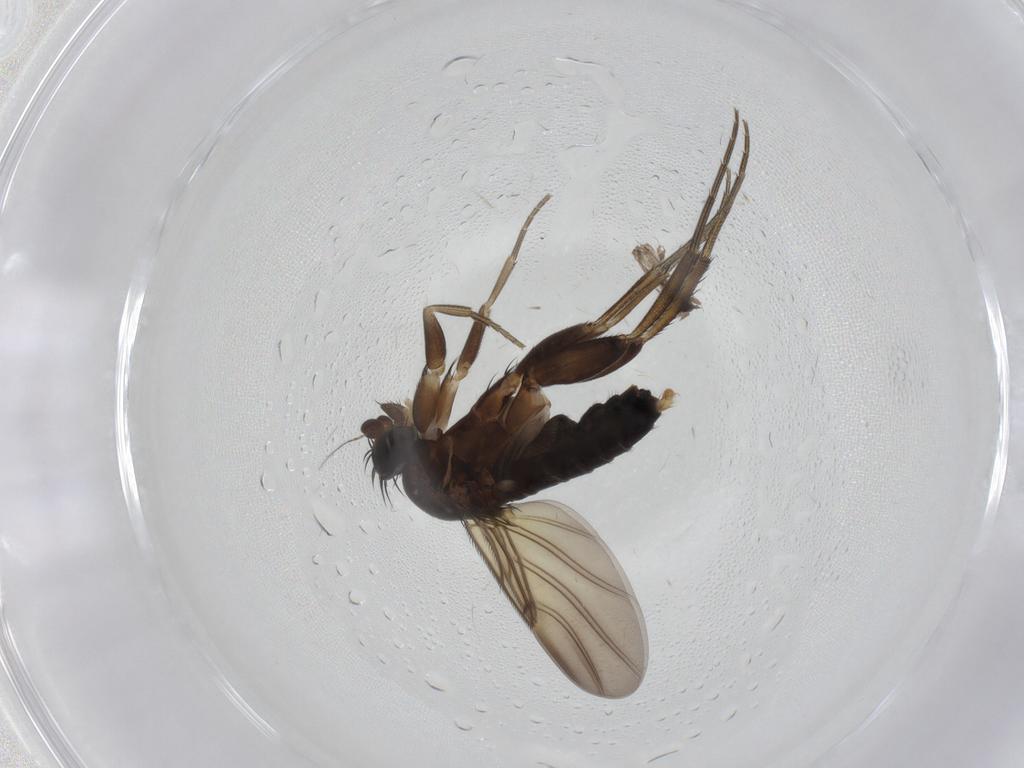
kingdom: Animalia
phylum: Arthropoda
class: Insecta
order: Diptera
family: Phoridae
